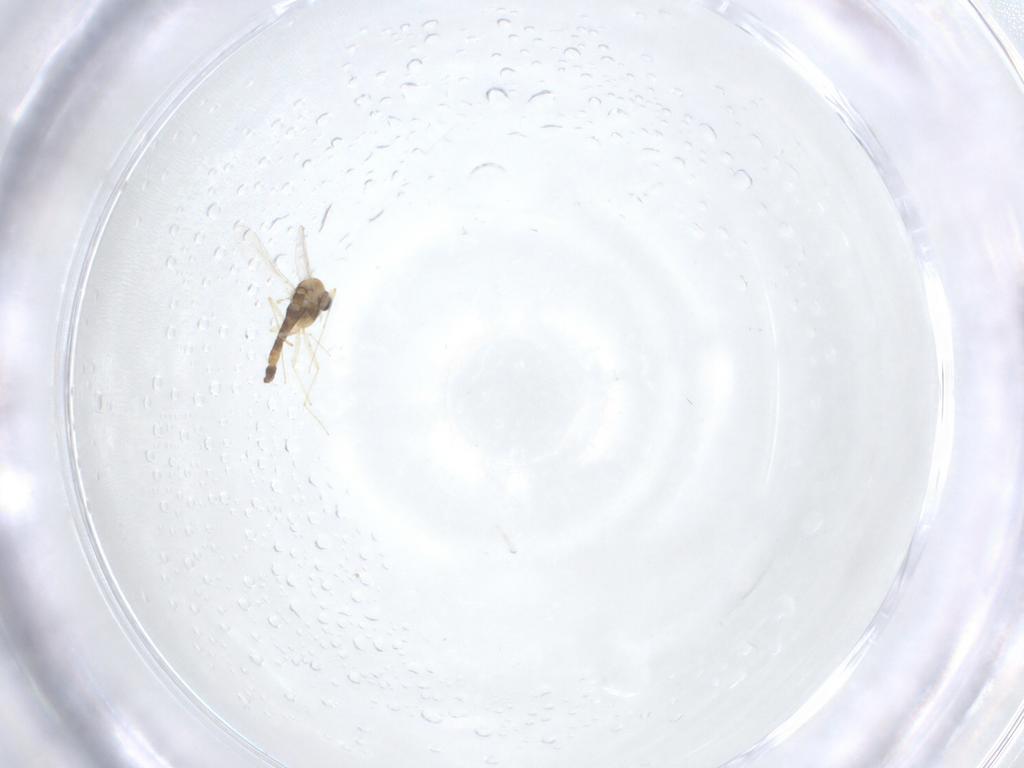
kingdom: Animalia
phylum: Arthropoda
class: Insecta
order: Diptera
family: Chironomidae
